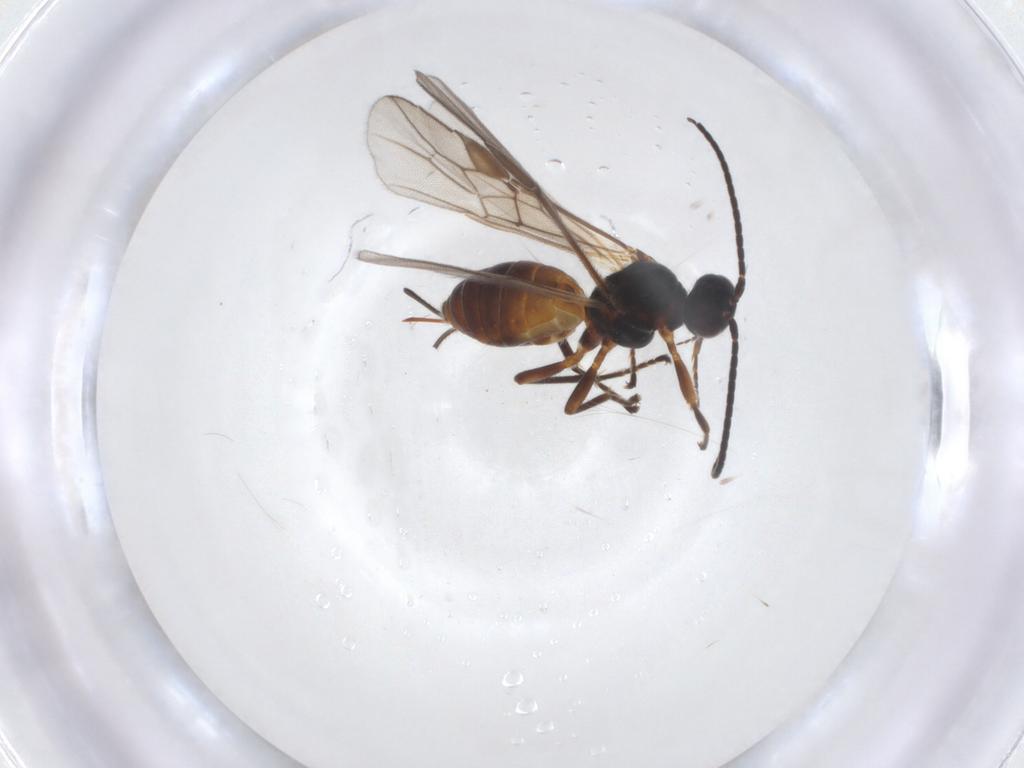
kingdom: Animalia
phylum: Arthropoda
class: Insecta
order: Hymenoptera
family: Braconidae
